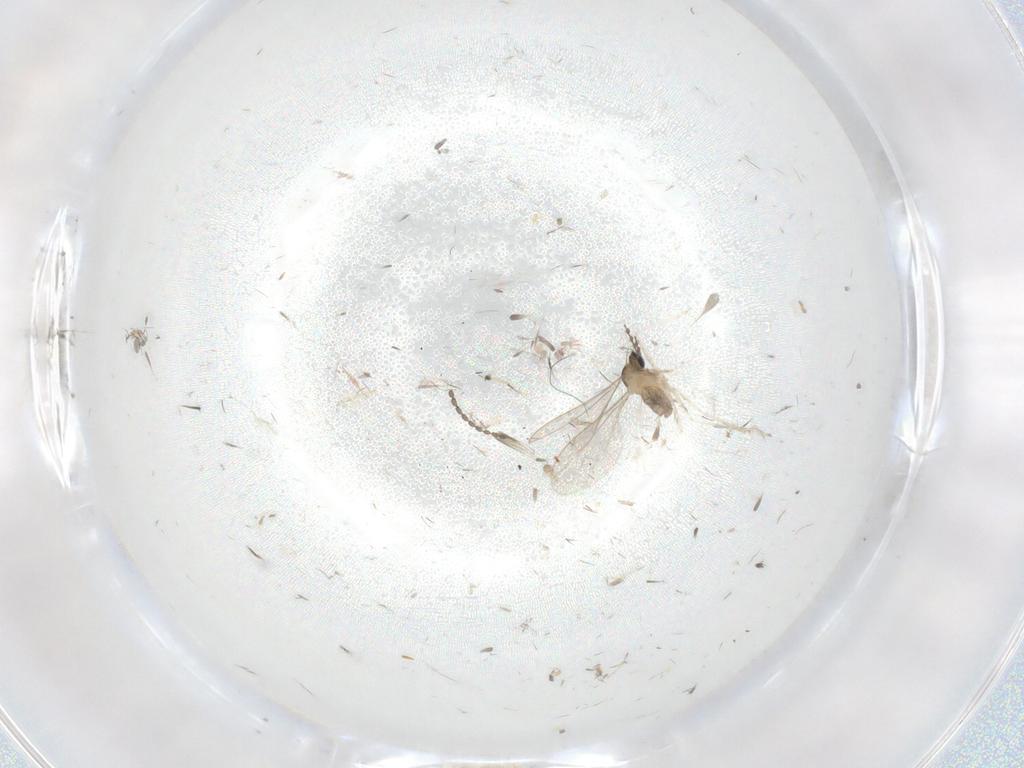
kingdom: Animalia
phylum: Arthropoda
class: Insecta
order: Diptera
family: Cecidomyiidae
